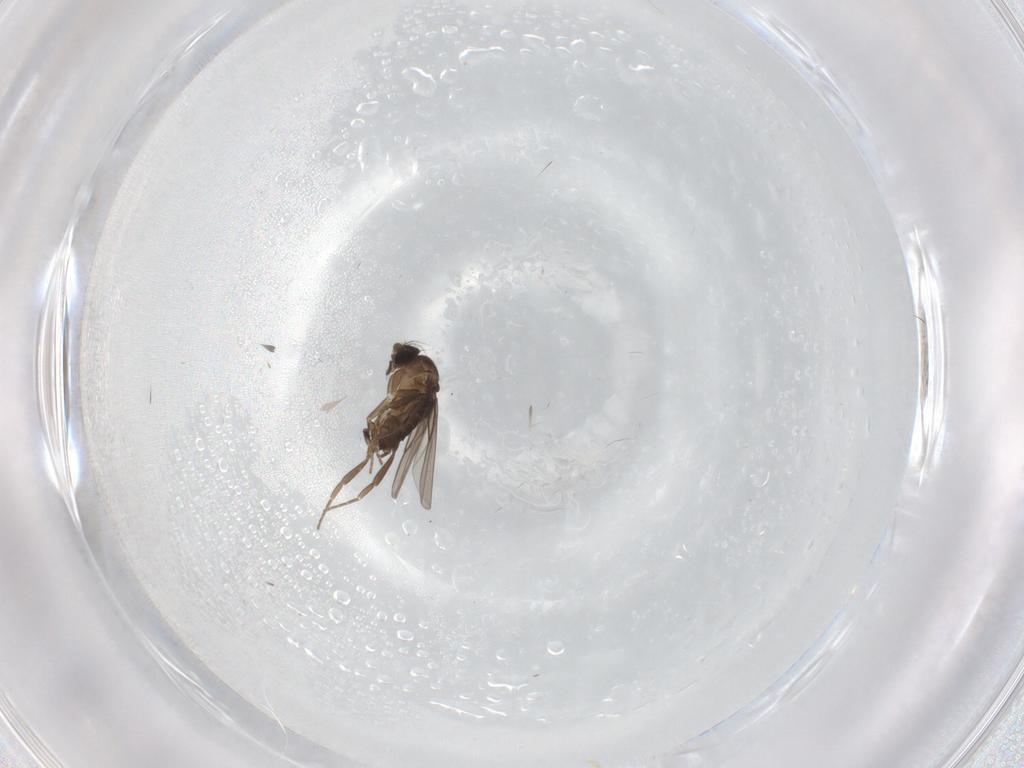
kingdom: Animalia
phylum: Arthropoda
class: Insecta
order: Diptera
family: Phoridae
